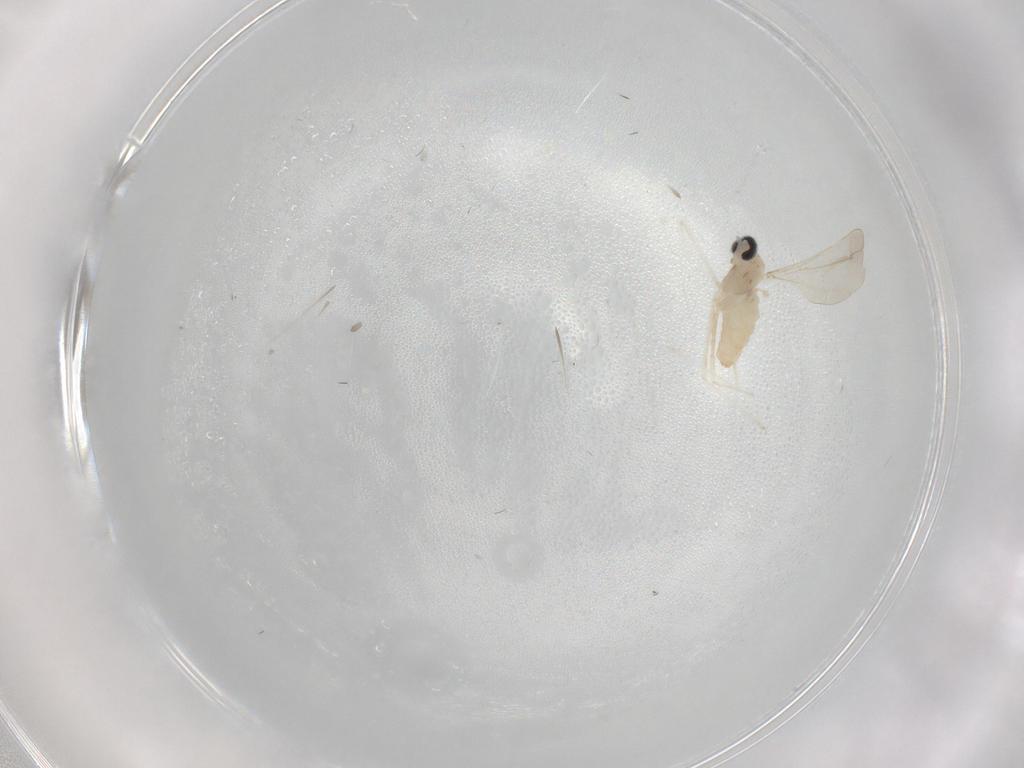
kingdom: Animalia
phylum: Arthropoda
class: Insecta
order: Diptera
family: Cecidomyiidae
